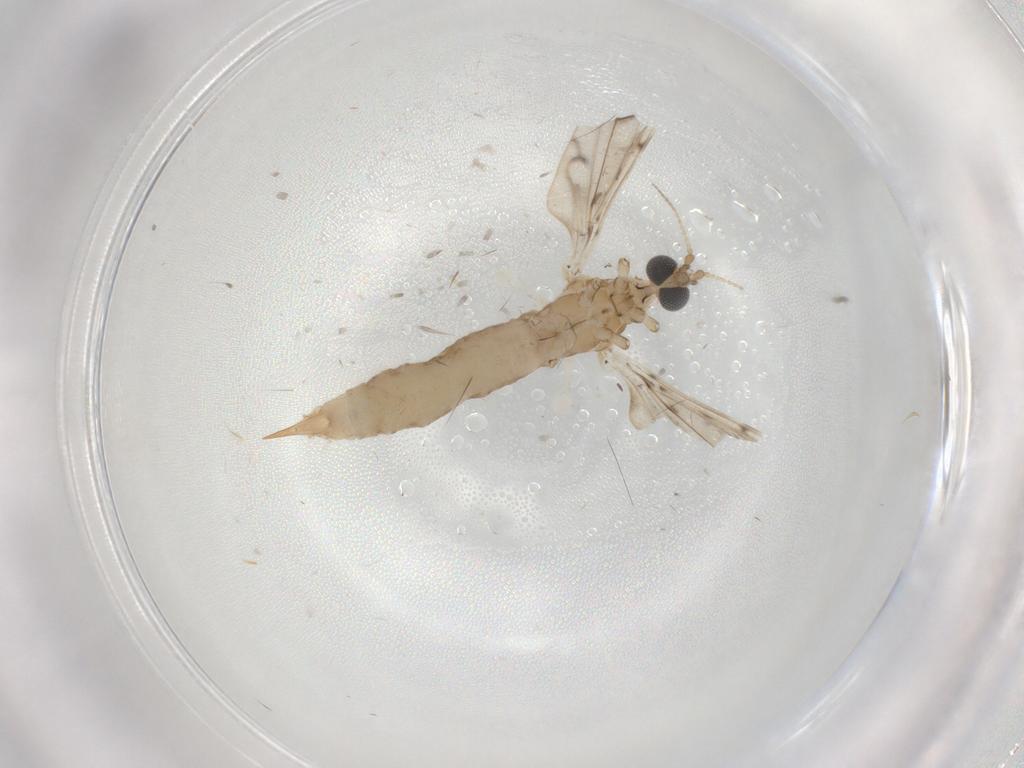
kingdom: Animalia
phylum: Arthropoda
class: Insecta
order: Diptera
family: Limoniidae
